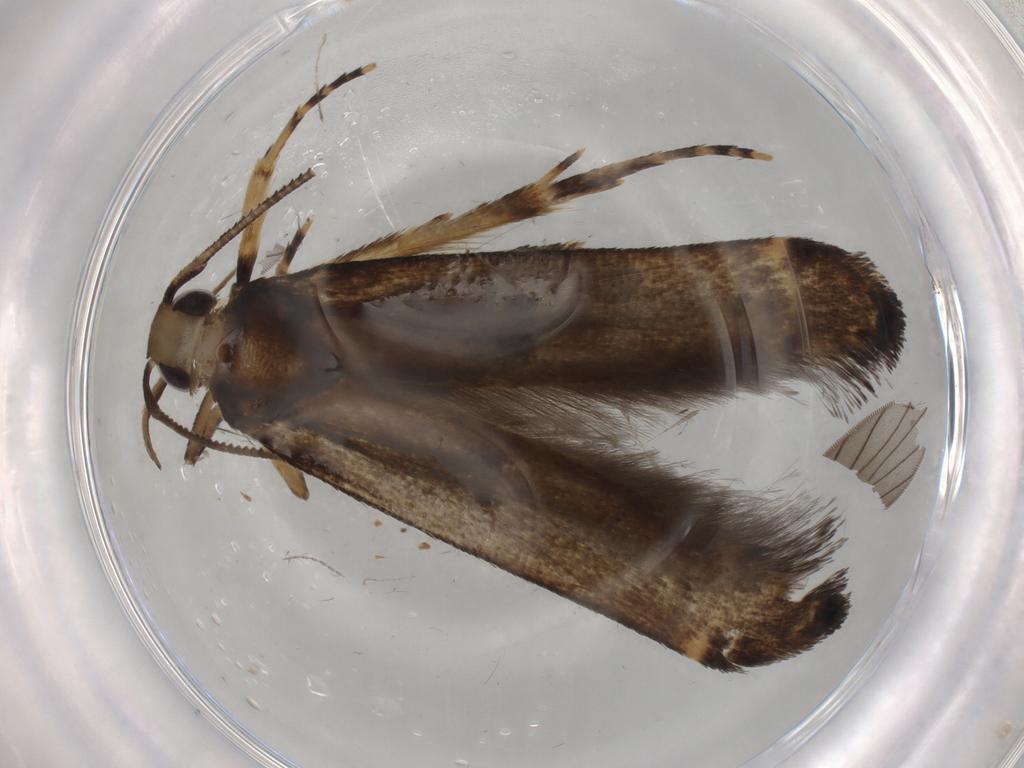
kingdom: Animalia
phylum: Arthropoda
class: Insecta
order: Lepidoptera
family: Cosmopterigidae
